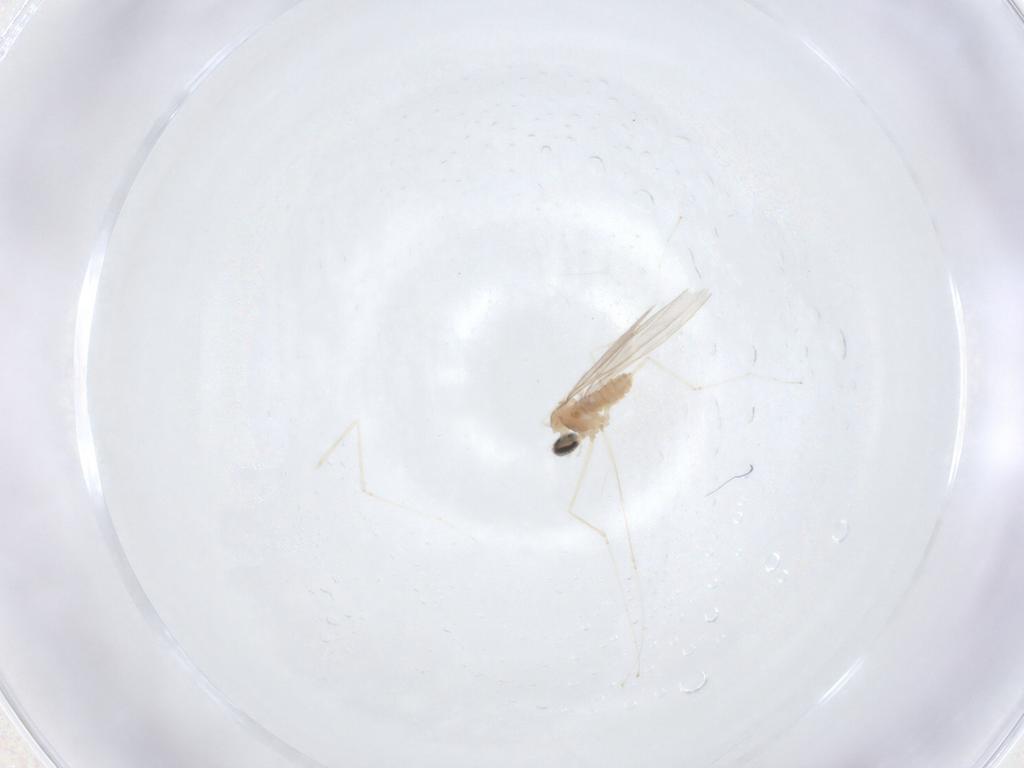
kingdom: Animalia
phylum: Arthropoda
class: Insecta
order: Diptera
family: Cecidomyiidae
